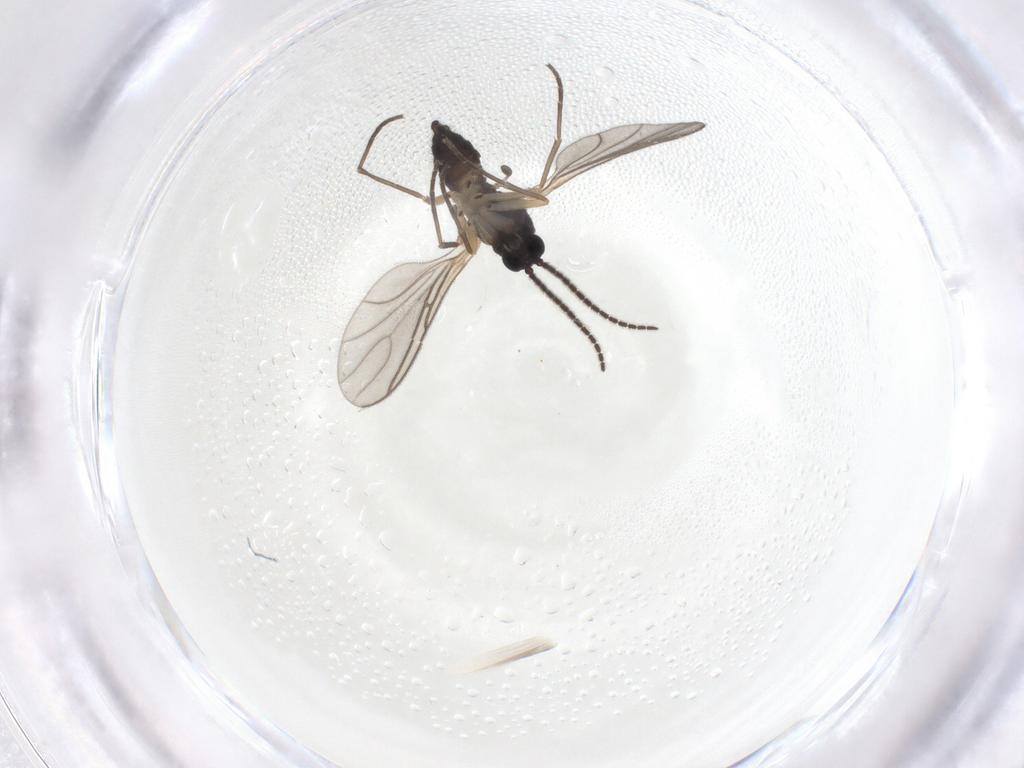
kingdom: Animalia
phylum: Arthropoda
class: Insecta
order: Diptera
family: Sciaridae
